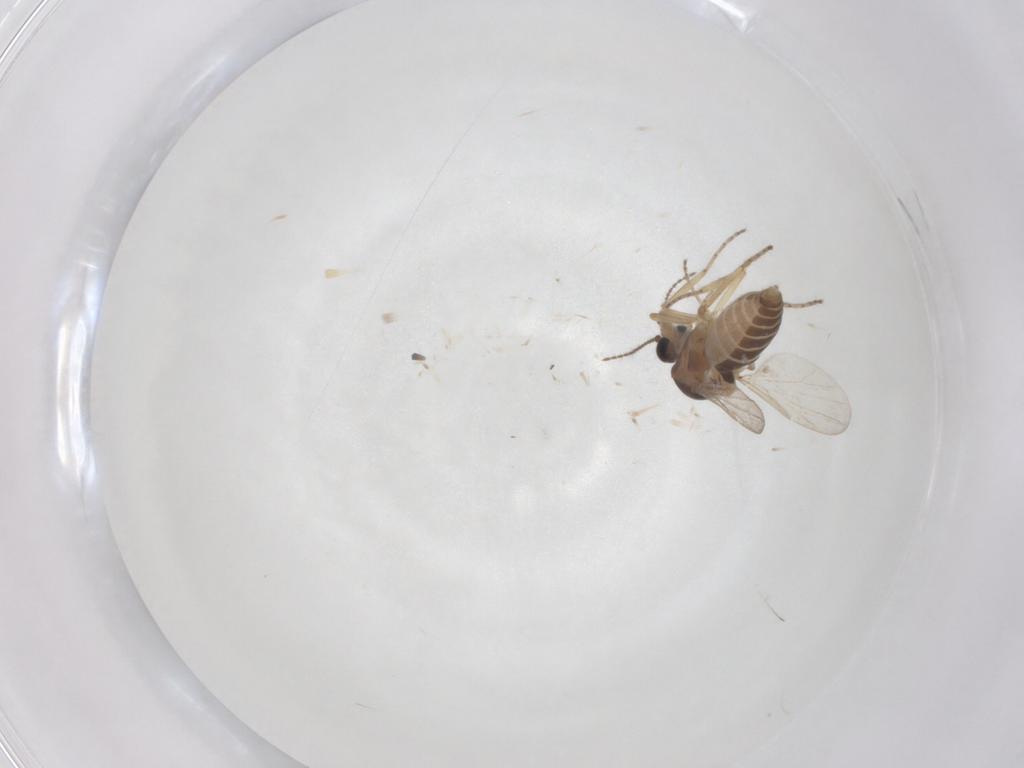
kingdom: Animalia
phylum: Arthropoda
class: Insecta
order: Diptera
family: Ceratopogonidae
